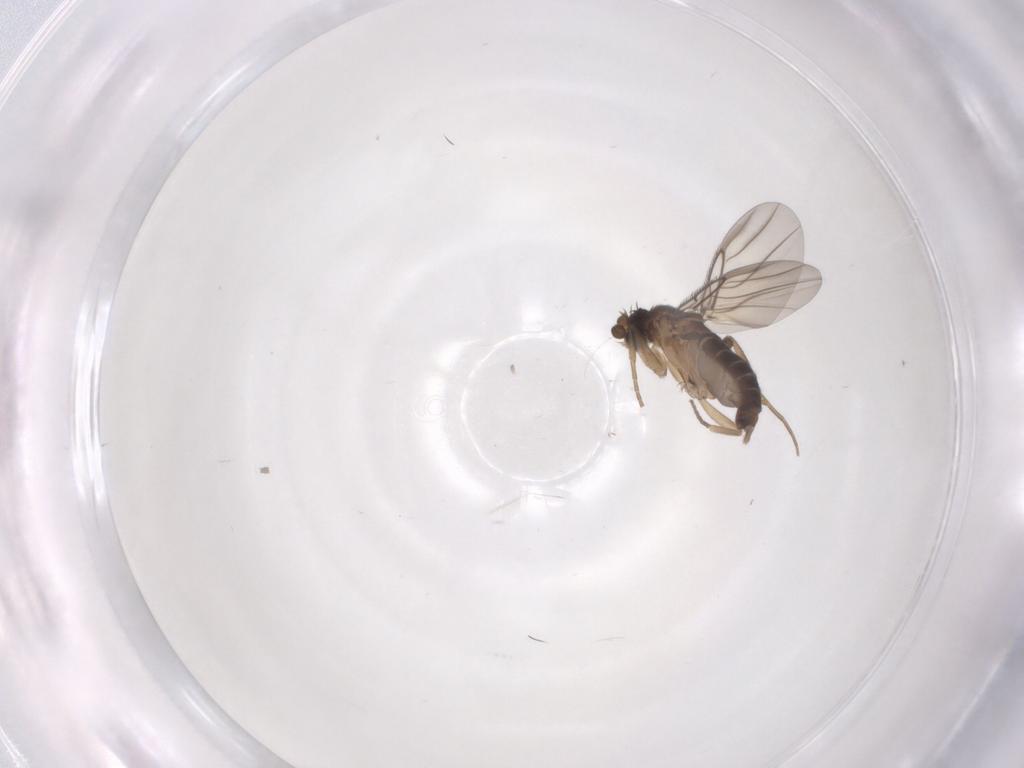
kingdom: Animalia
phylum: Arthropoda
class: Insecta
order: Diptera
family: Phoridae
